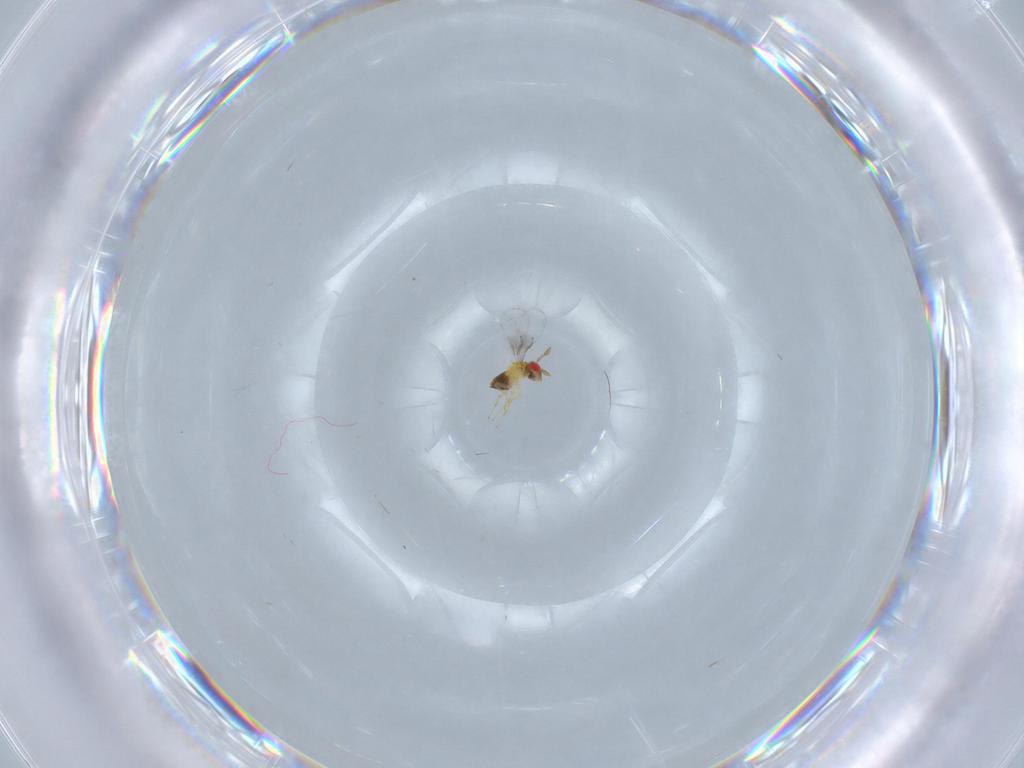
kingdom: Animalia
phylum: Arthropoda
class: Insecta
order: Hymenoptera
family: Trichogrammatidae
